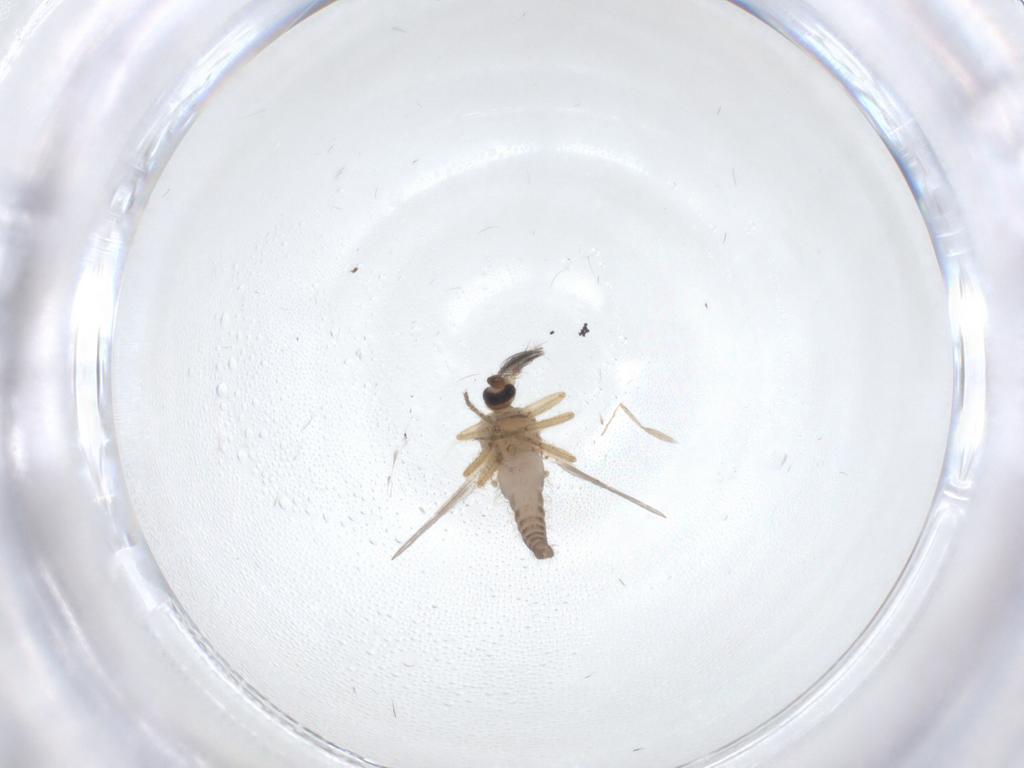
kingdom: Animalia
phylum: Arthropoda
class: Insecta
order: Diptera
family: Ceratopogonidae
